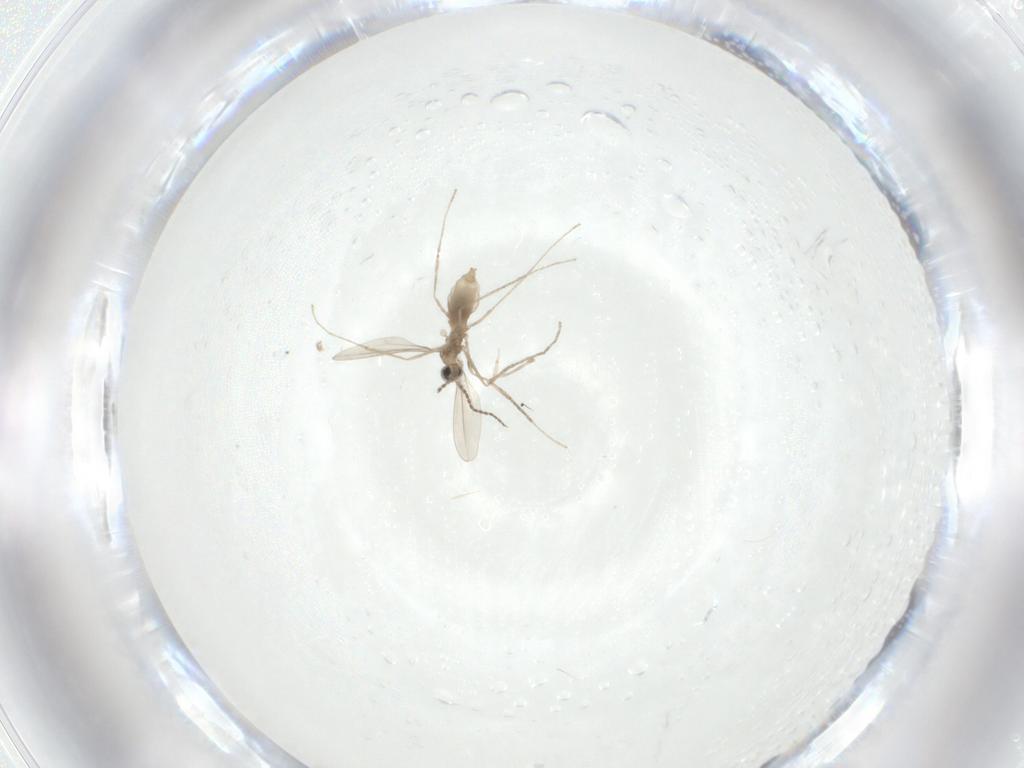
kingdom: Animalia
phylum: Arthropoda
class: Insecta
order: Diptera
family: Cecidomyiidae
